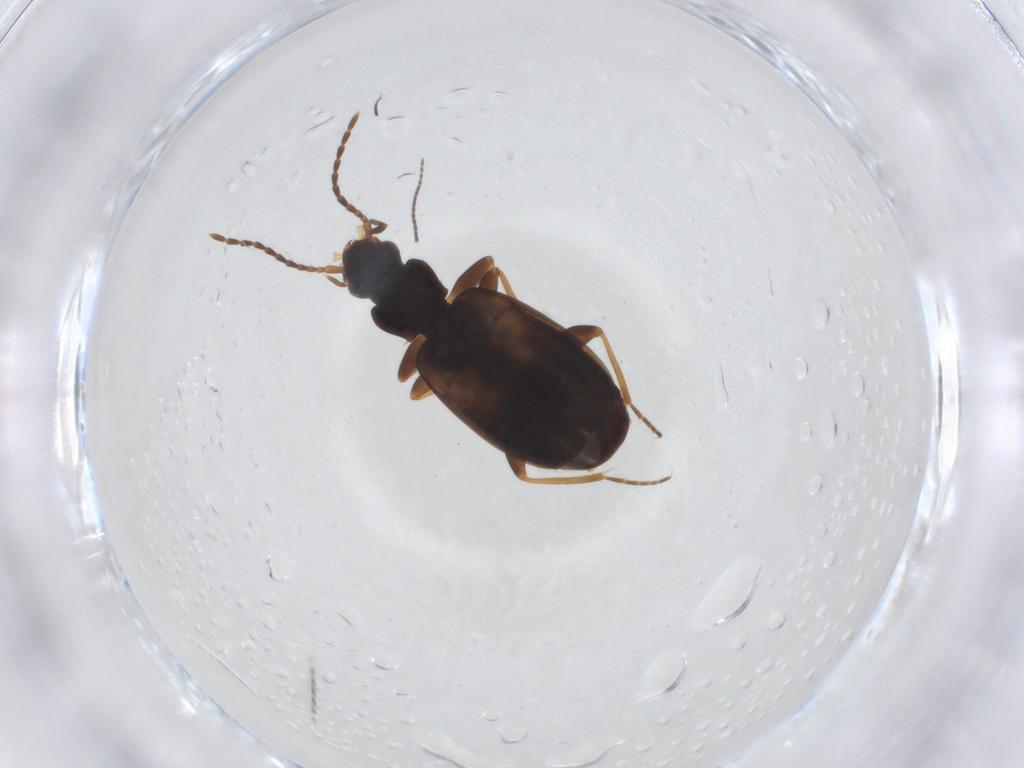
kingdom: Animalia
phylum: Arthropoda
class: Insecta
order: Coleoptera
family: Carabidae
